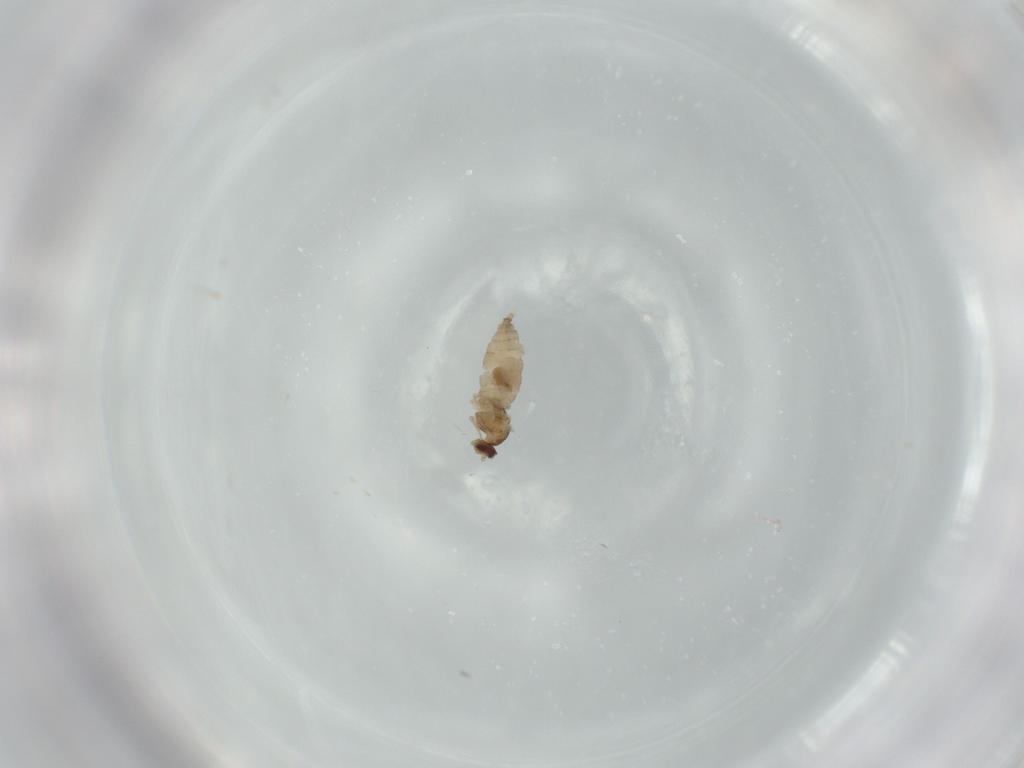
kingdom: Animalia
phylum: Arthropoda
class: Insecta
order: Diptera
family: Cecidomyiidae
